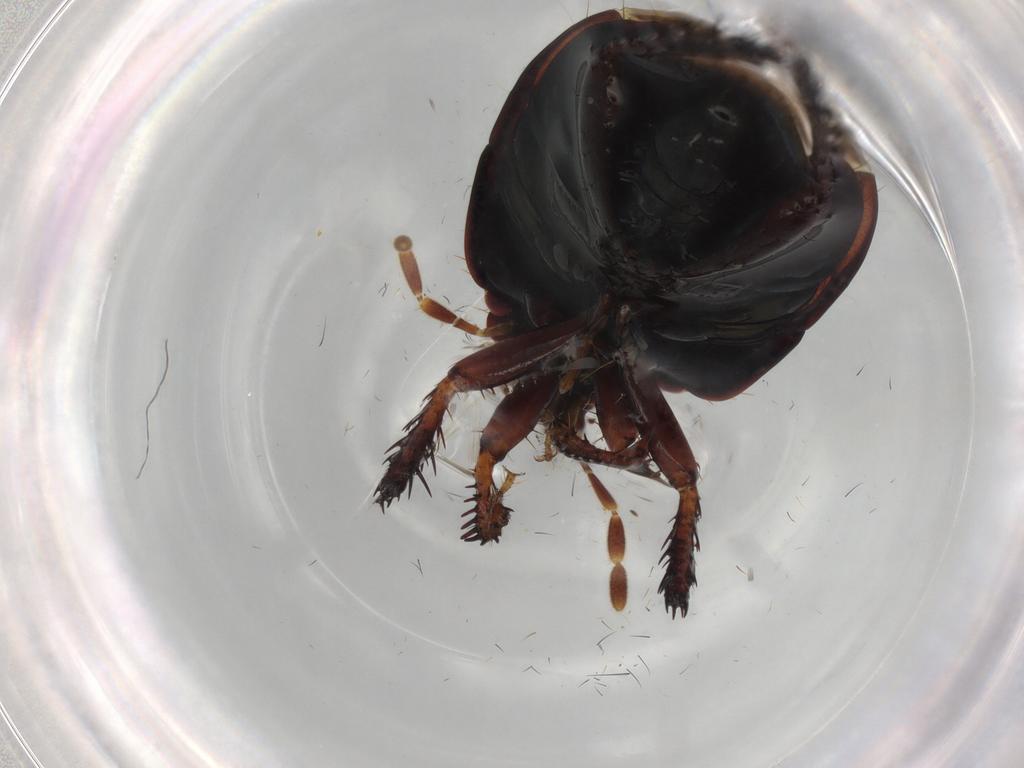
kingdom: Animalia
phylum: Arthropoda
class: Insecta
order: Hemiptera
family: Cydnidae
